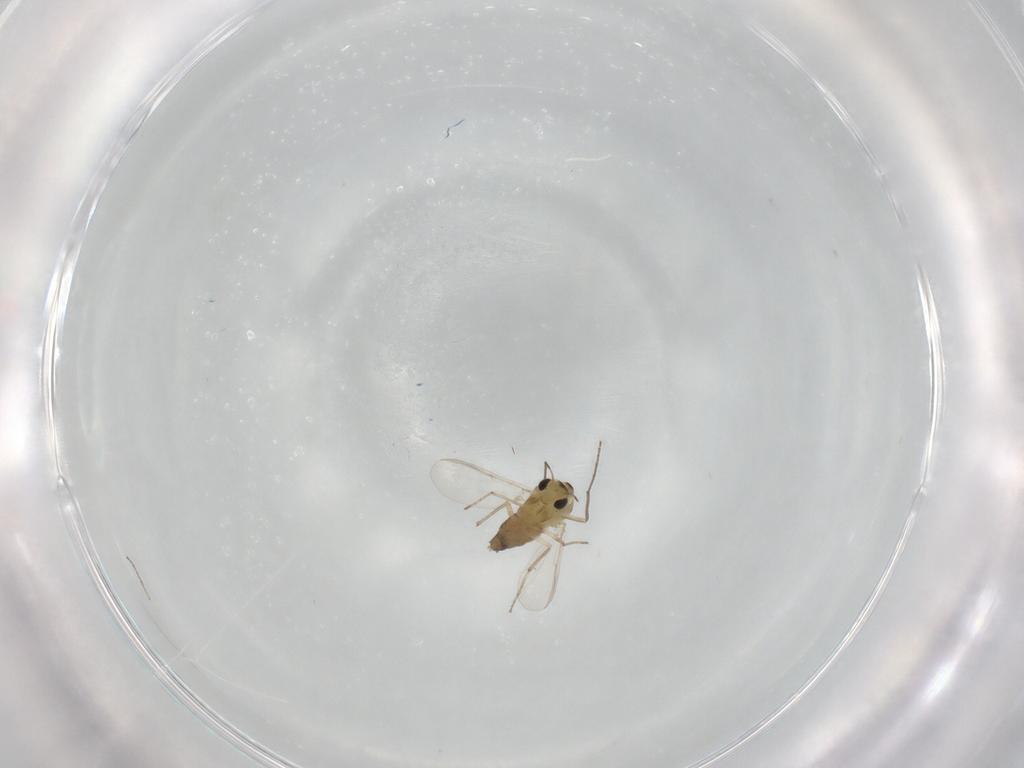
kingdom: Animalia
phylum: Arthropoda
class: Insecta
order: Diptera
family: Chironomidae
